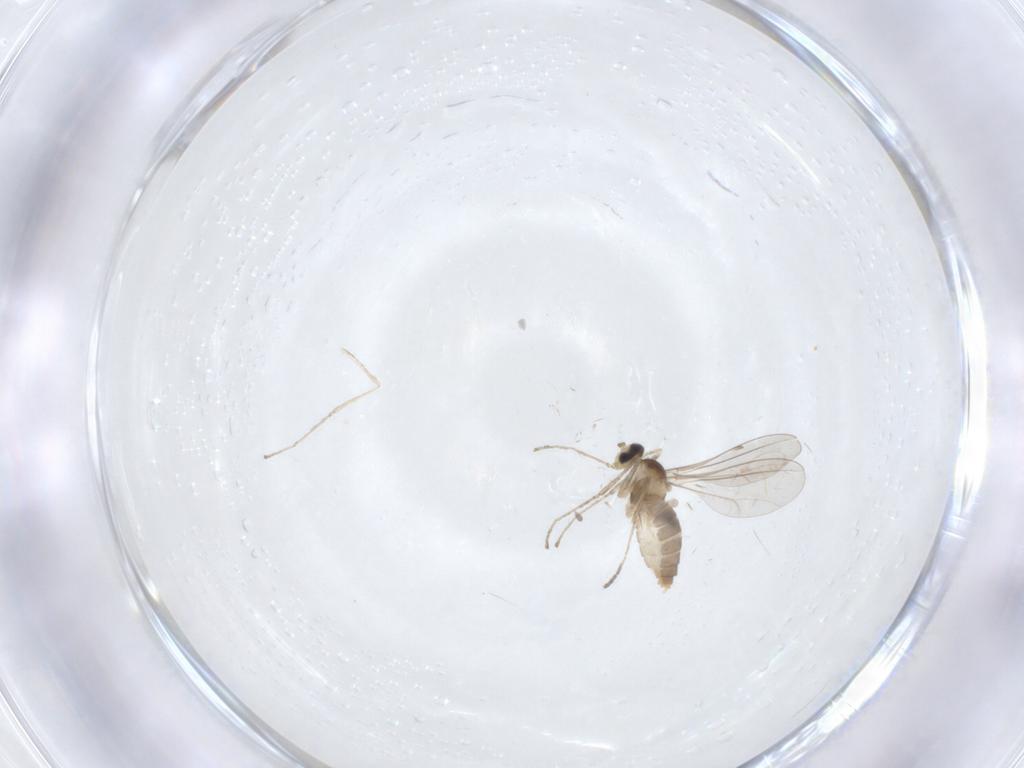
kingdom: Animalia
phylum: Arthropoda
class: Insecta
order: Diptera
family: Cecidomyiidae
